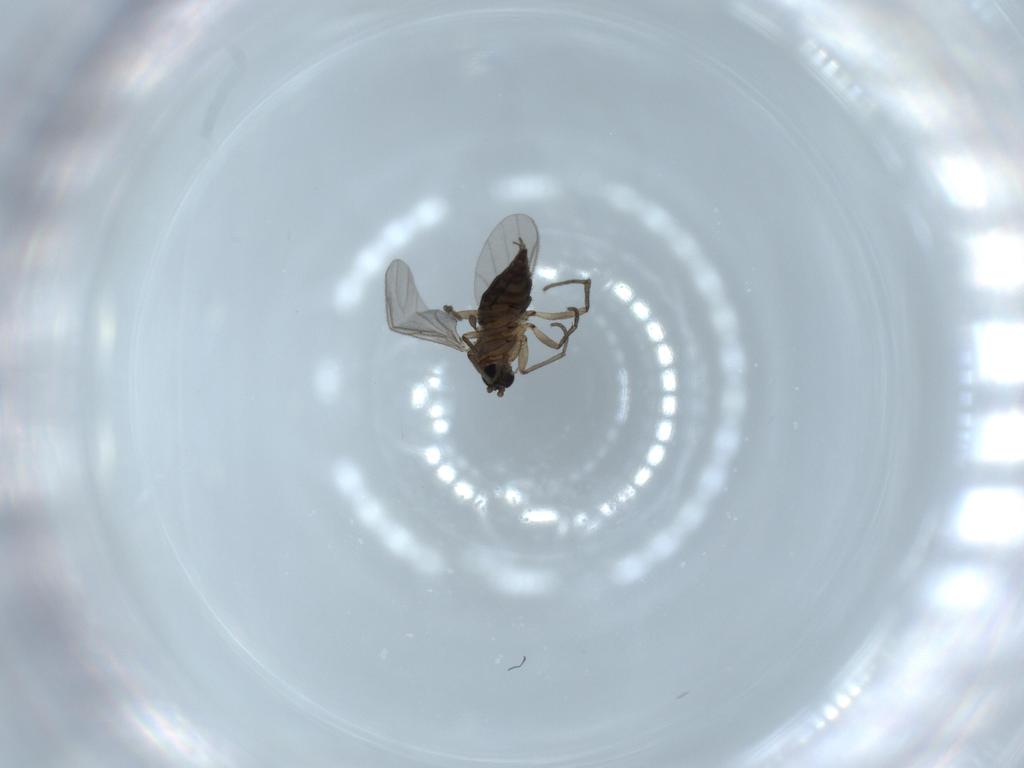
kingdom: Animalia
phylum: Arthropoda
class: Insecta
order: Diptera
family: Sciaridae
